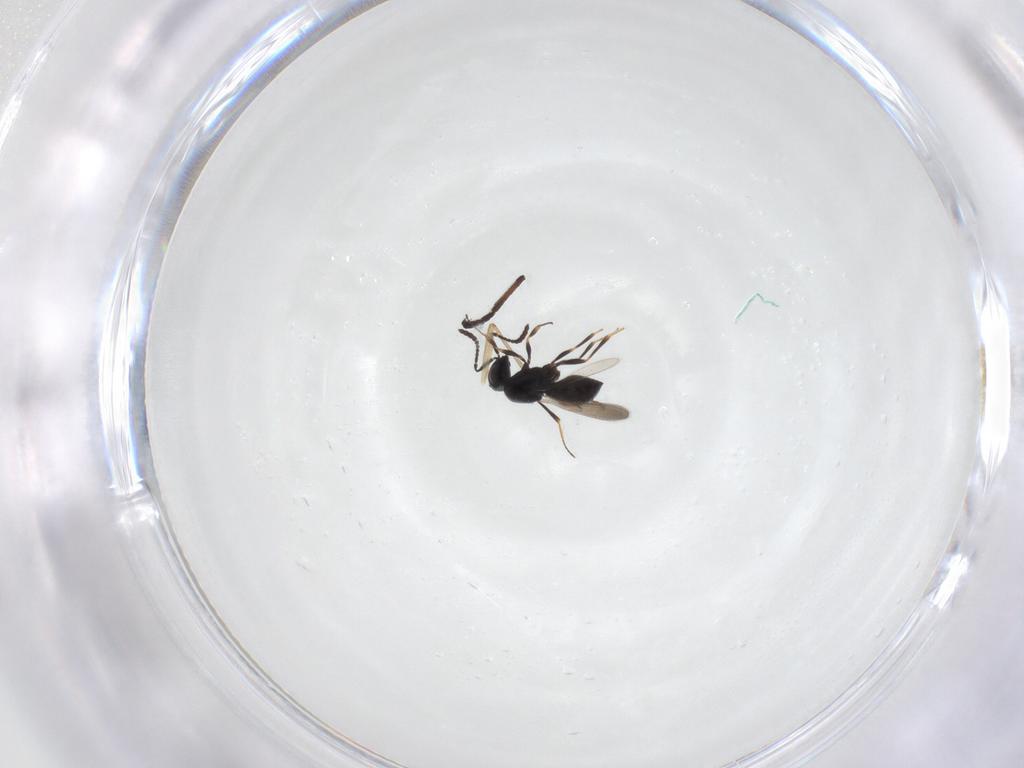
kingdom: Animalia
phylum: Arthropoda
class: Insecta
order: Hymenoptera
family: Scelionidae
